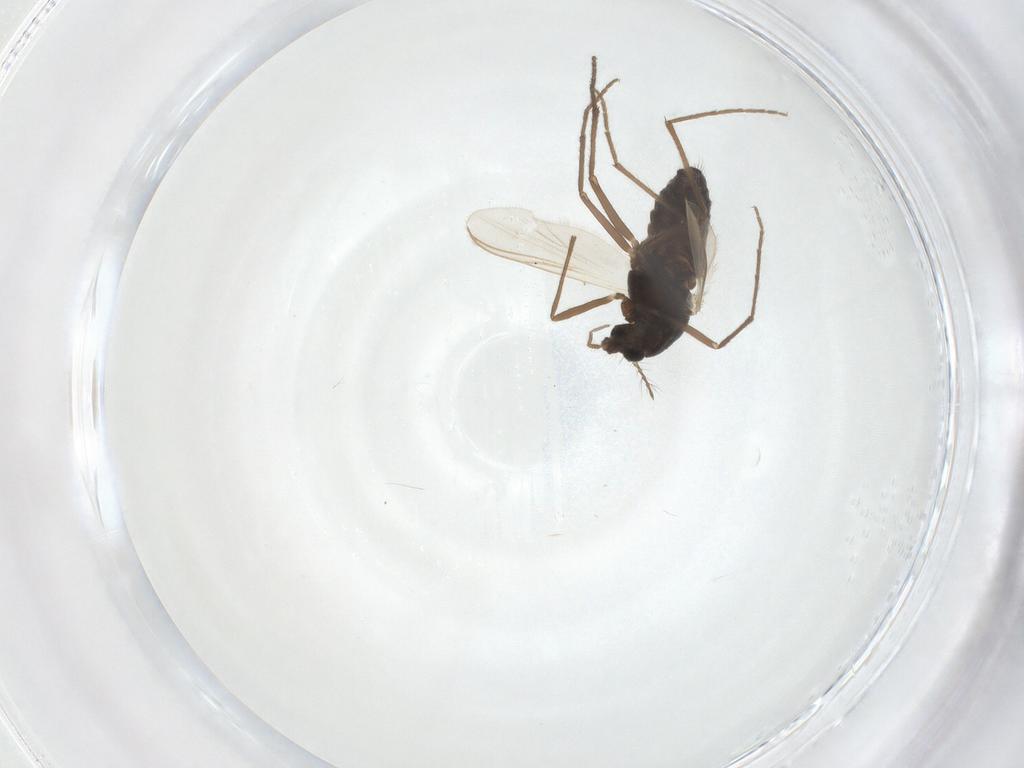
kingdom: Animalia
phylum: Arthropoda
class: Insecta
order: Diptera
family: Chironomidae
